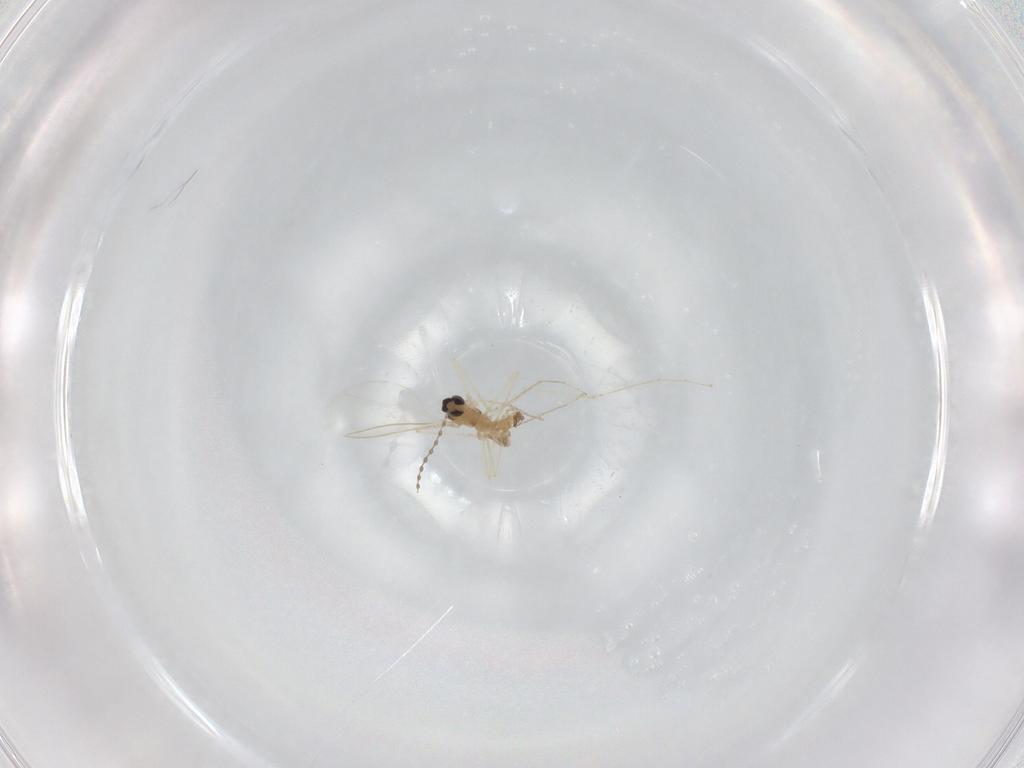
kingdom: Animalia
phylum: Arthropoda
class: Insecta
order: Diptera
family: Cecidomyiidae
